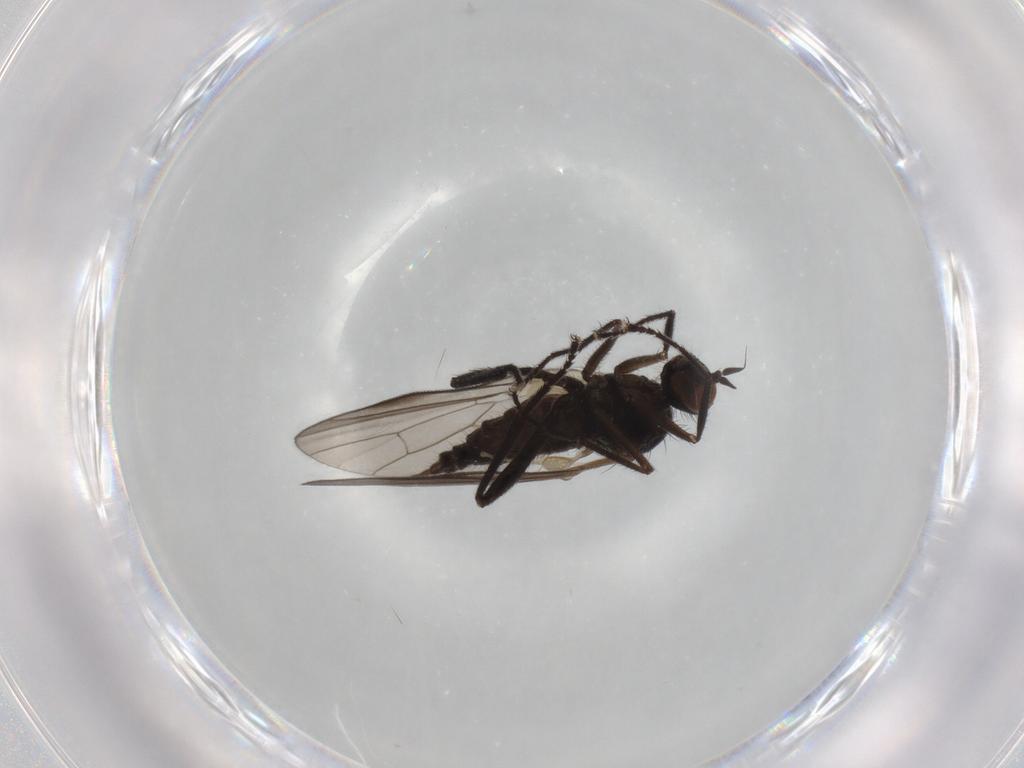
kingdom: Animalia
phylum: Arthropoda
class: Insecta
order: Diptera
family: Hybotidae
